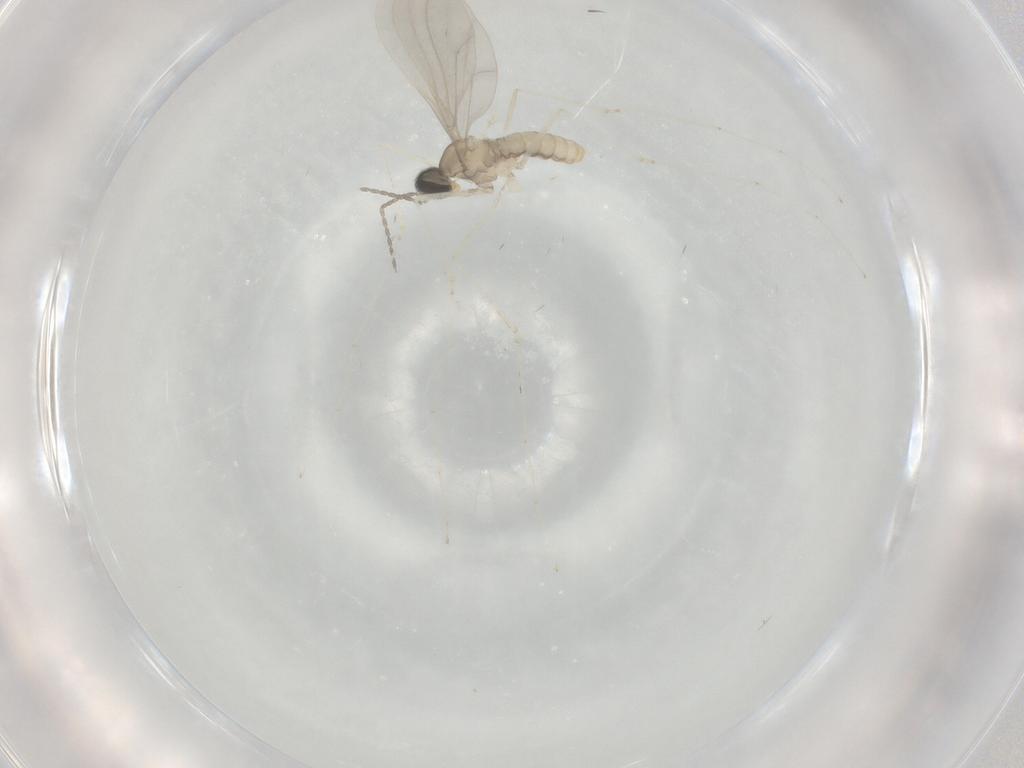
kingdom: Animalia
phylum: Arthropoda
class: Insecta
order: Diptera
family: Cecidomyiidae
